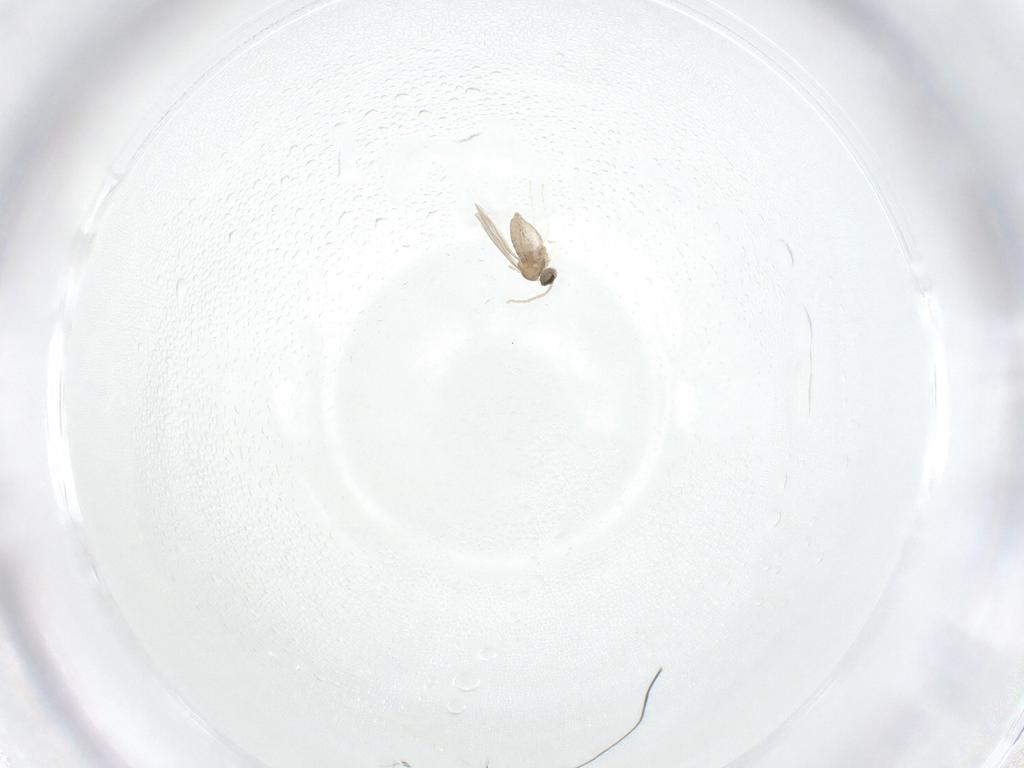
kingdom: Animalia
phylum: Arthropoda
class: Insecta
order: Diptera
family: Cecidomyiidae
